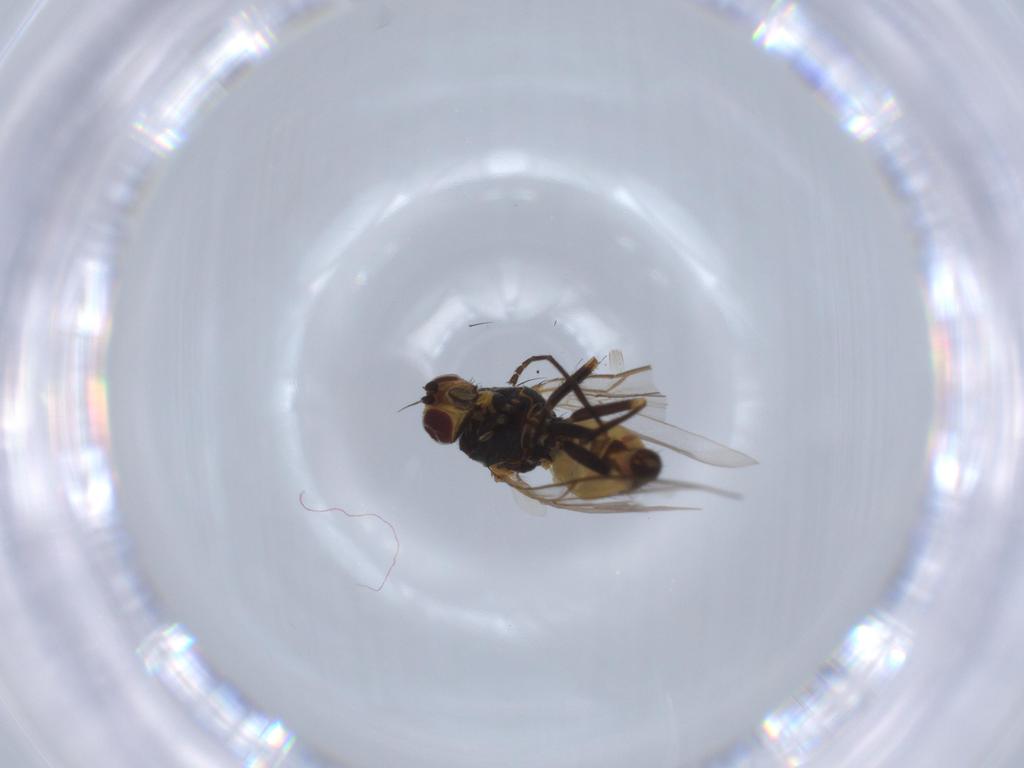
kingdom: Animalia
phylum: Arthropoda
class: Insecta
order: Diptera
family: Agromyzidae
